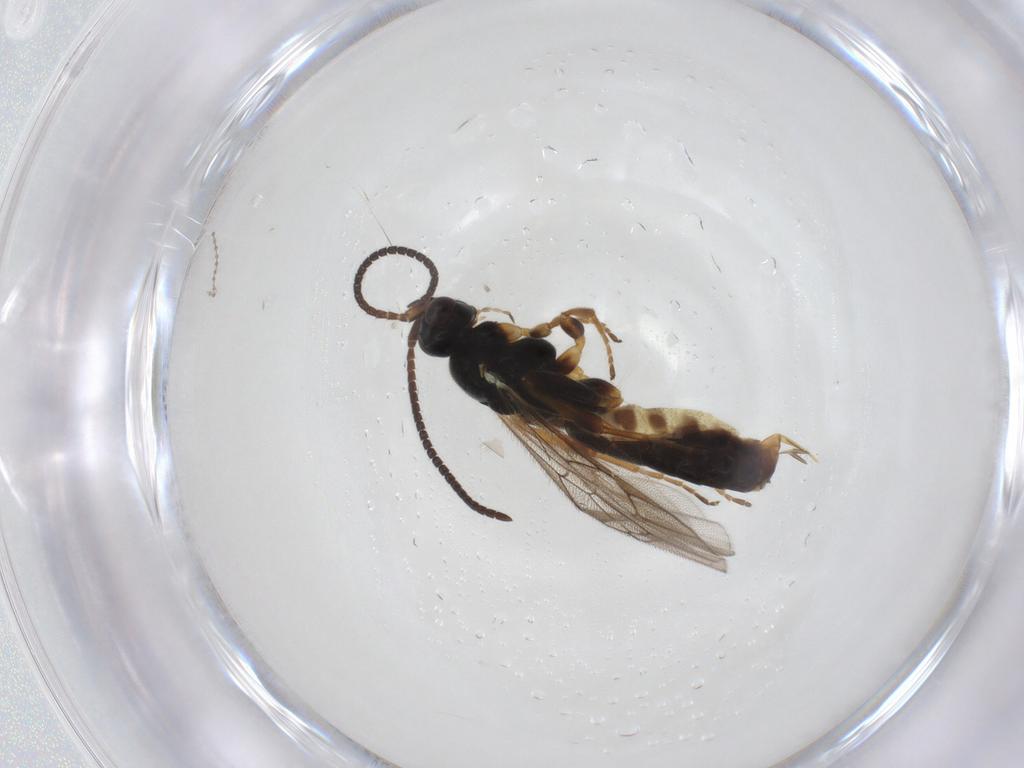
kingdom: Animalia
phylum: Arthropoda
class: Insecta
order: Hymenoptera
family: Ichneumonidae
